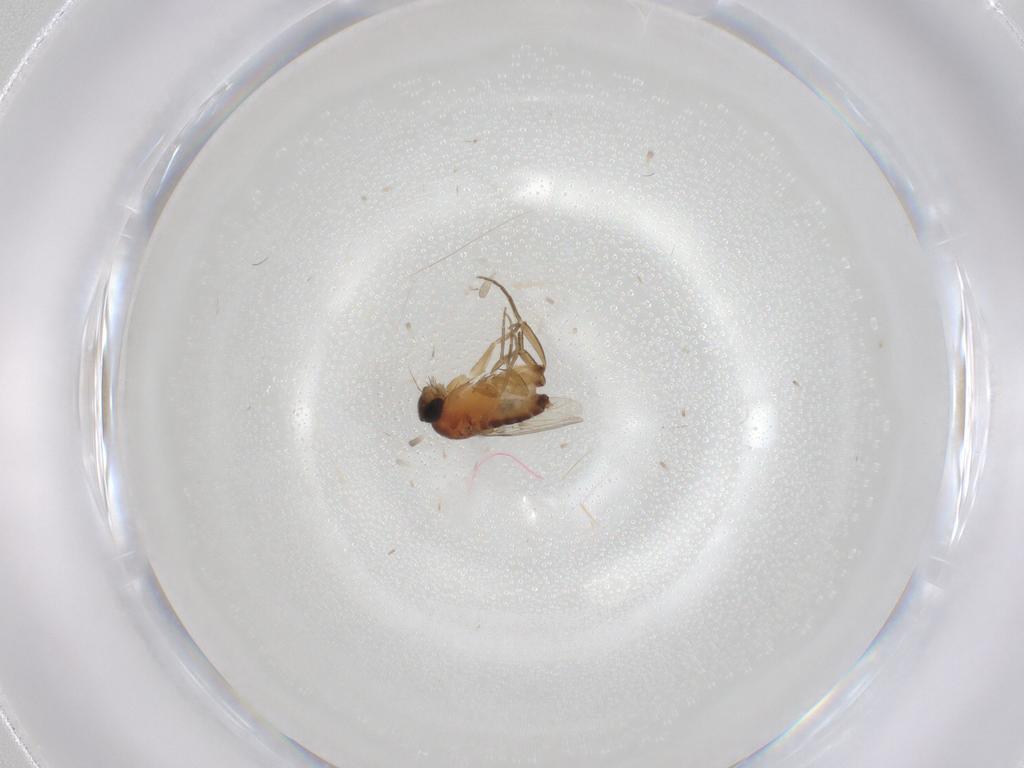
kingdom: Animalia
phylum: Arthropoda
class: Insecta
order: Diptera
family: Phoridae
